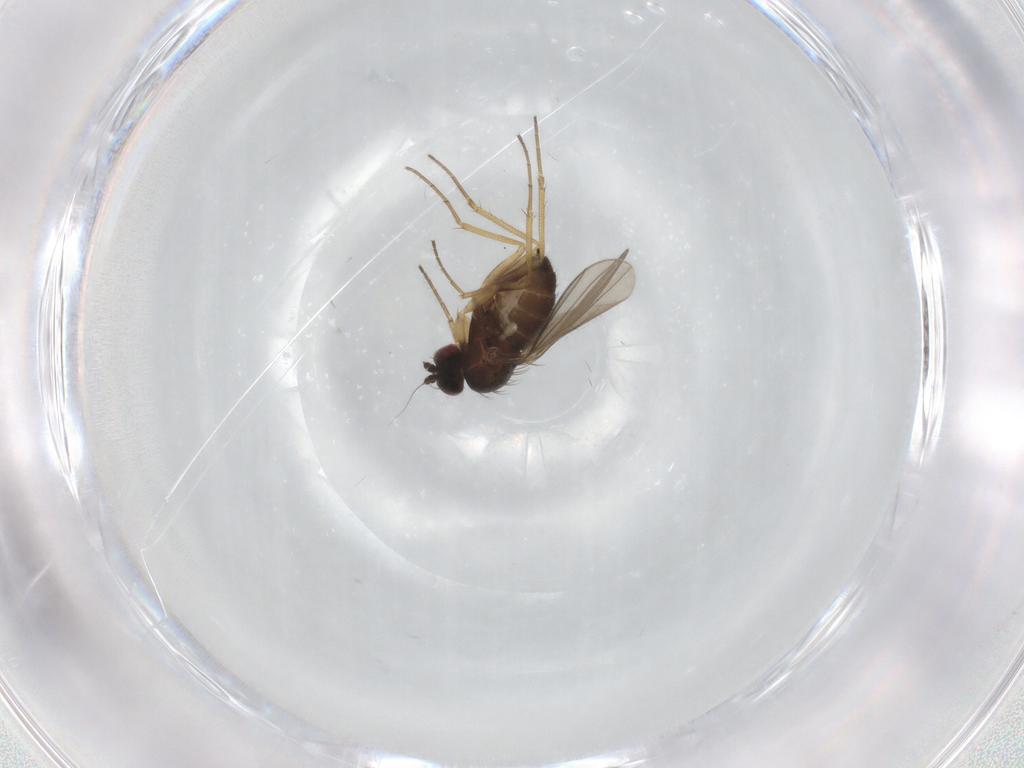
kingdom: Animalia
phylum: Arthropoda
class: Insecta
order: Diptera
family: Dolichopodidae
